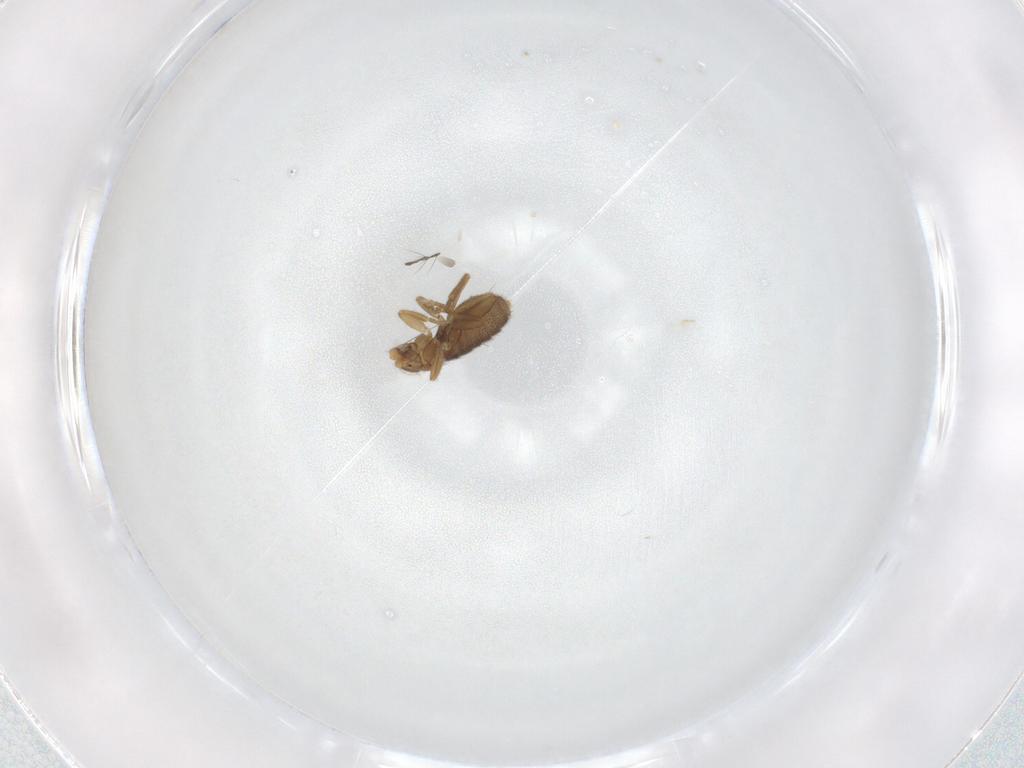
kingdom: Animalia
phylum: Arthropoda
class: Insecta
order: Diptera
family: Phoridae
